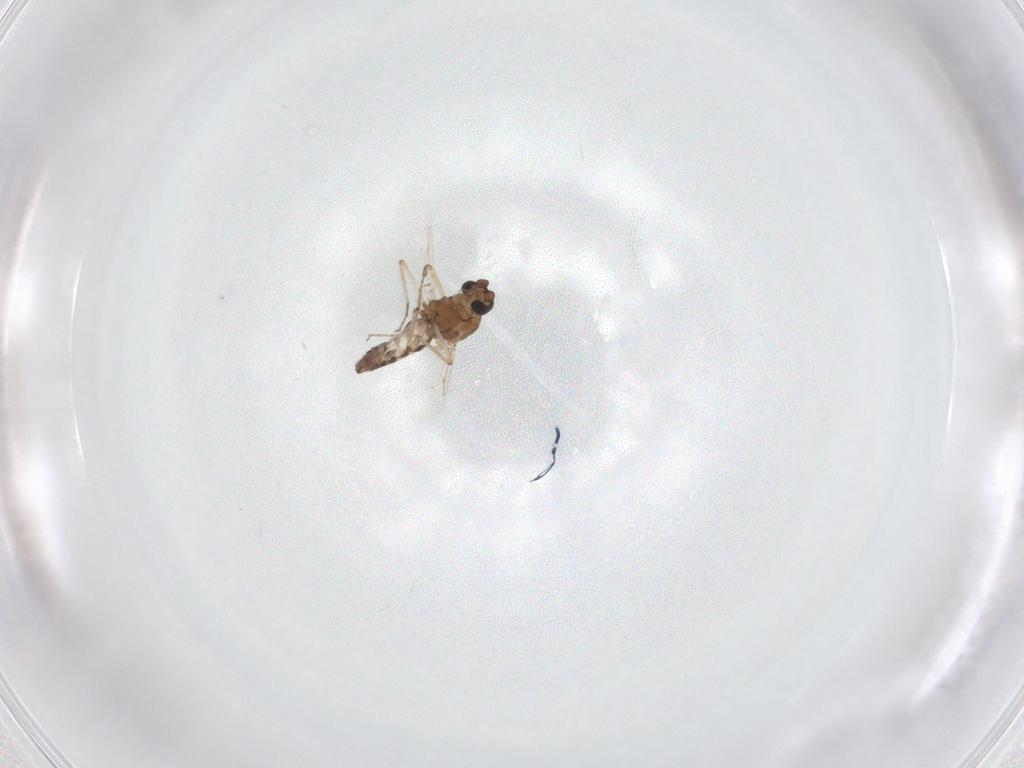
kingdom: Animalia
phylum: Arthropoda
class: Insecta
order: Diptera
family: Ceratopogonidae
